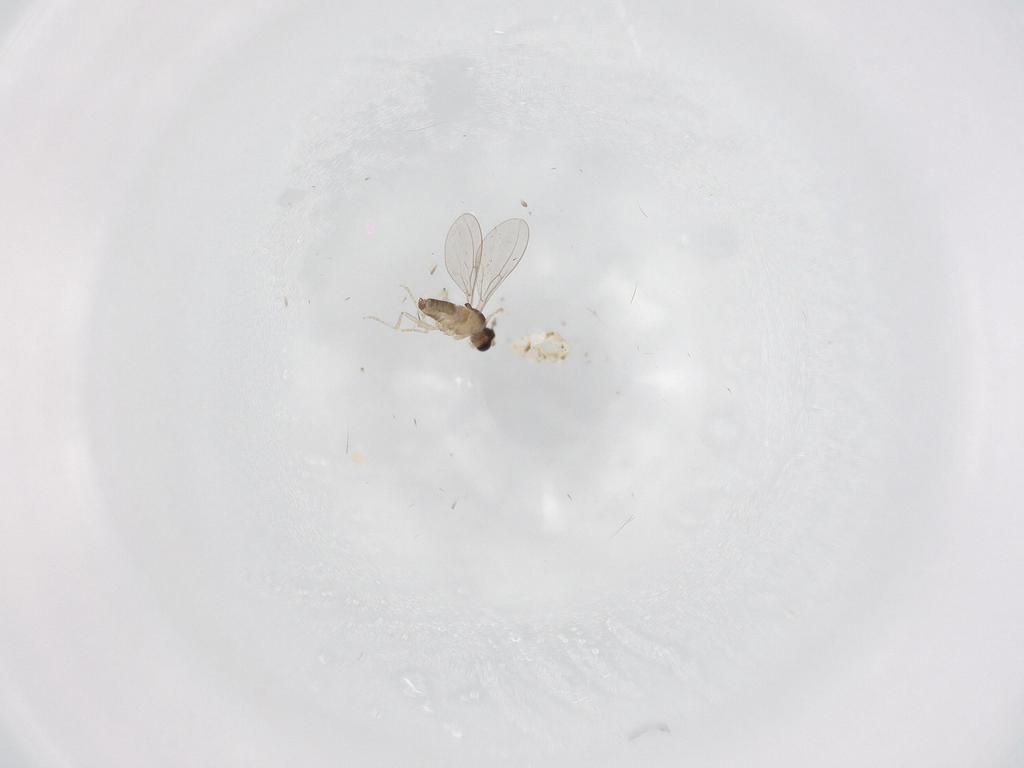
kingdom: Animalia
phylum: Arthropoda
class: Insecta
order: Diptera
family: Cecidomyiidae
